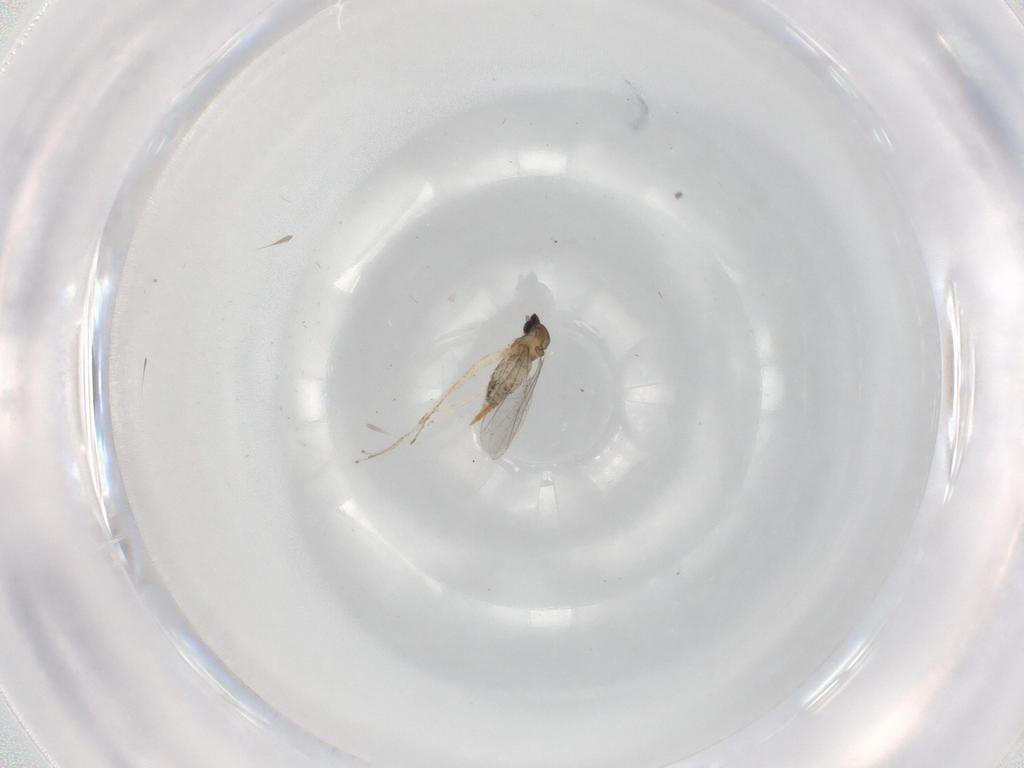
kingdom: Animalia
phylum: Arthropoda
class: Insecta
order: Diptera
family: Cecidomyiidae
